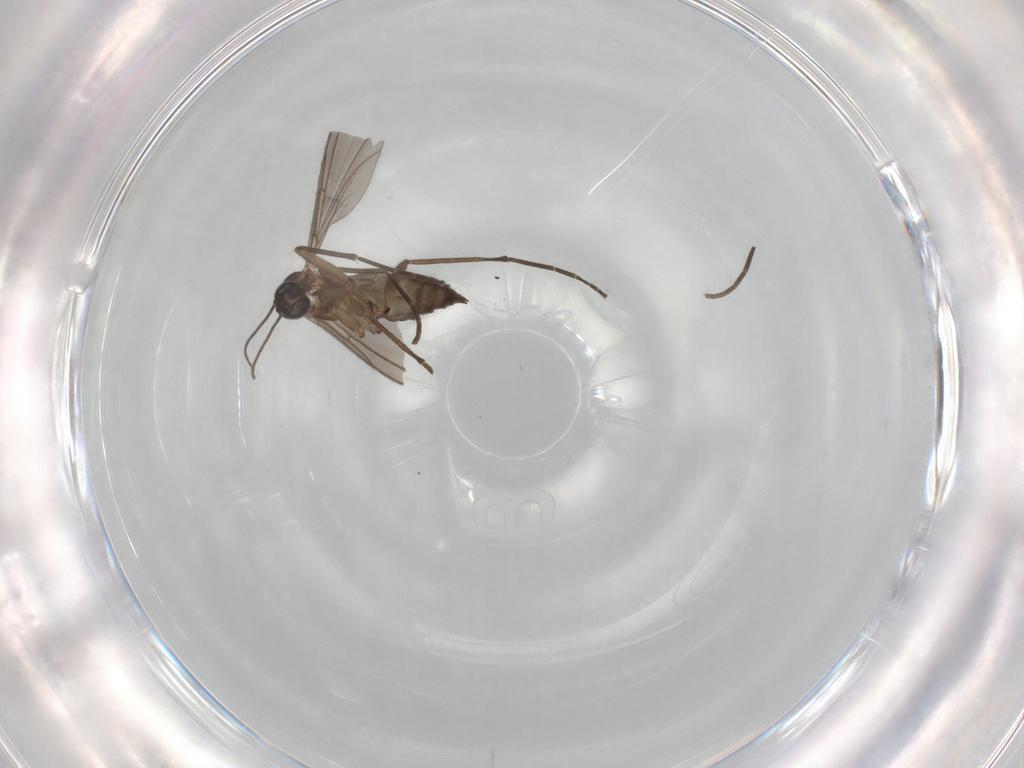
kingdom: Animalia
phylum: Arthropoda
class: Insecta
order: Diptera
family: Sciaridae
